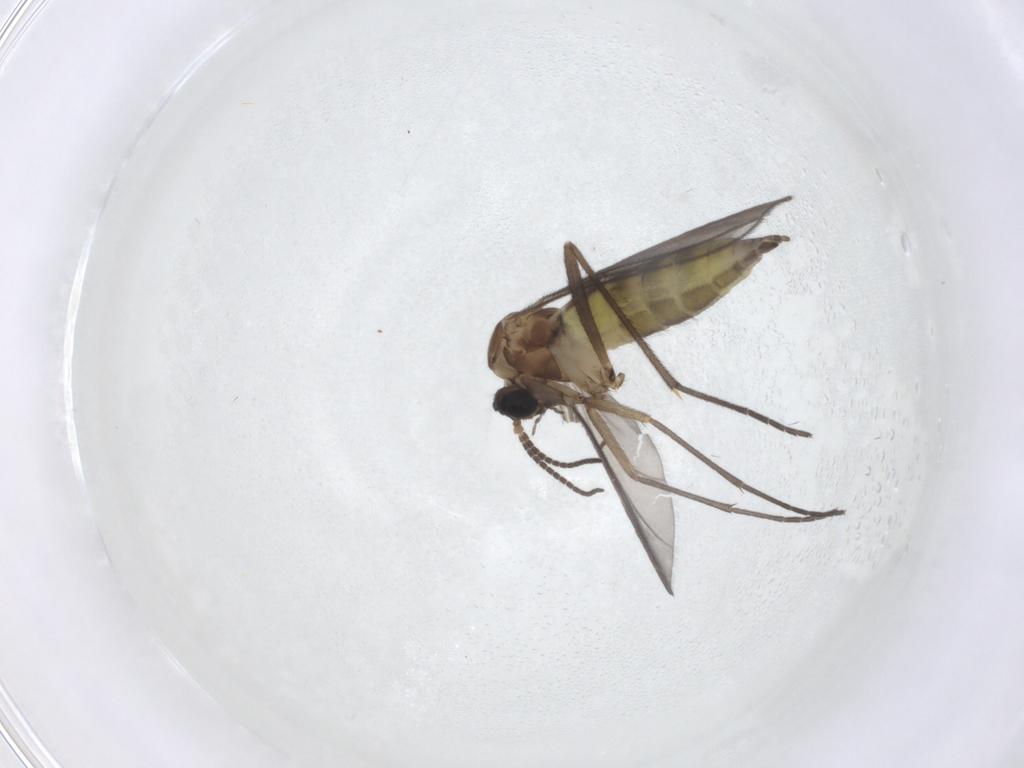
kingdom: Animalia
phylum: Arthropoda
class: Insecta
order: Diptera
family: Sciaridae
